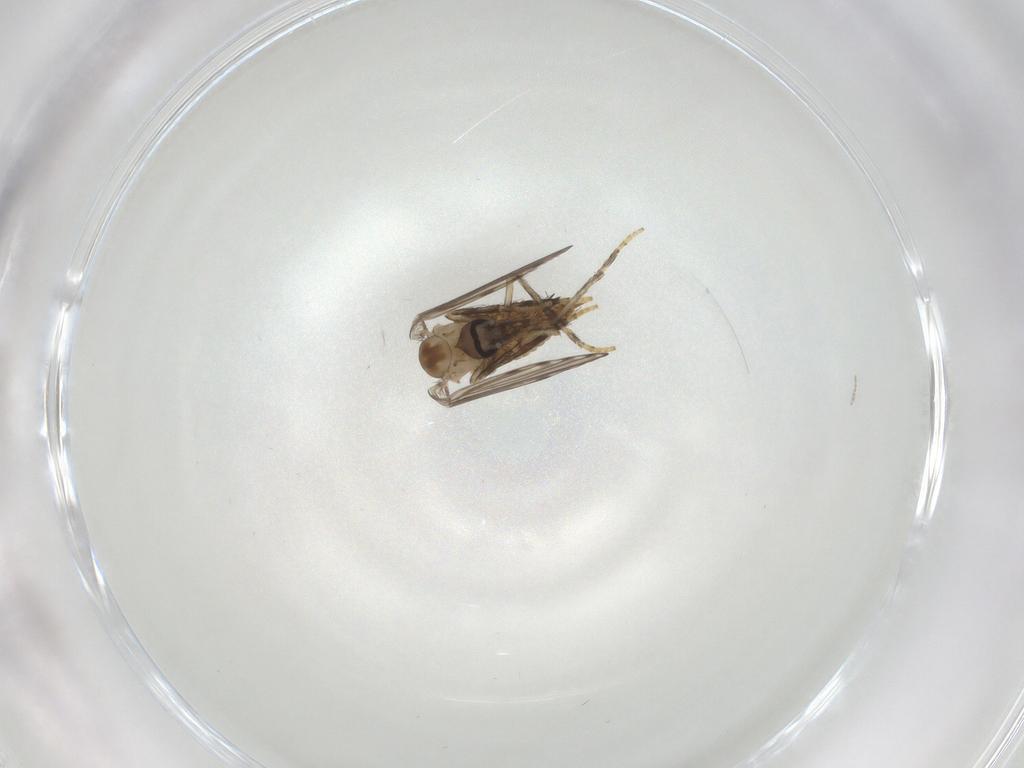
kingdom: Animalia
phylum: Arthropoda
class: Insecta
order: Diptera
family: Psychodidae
